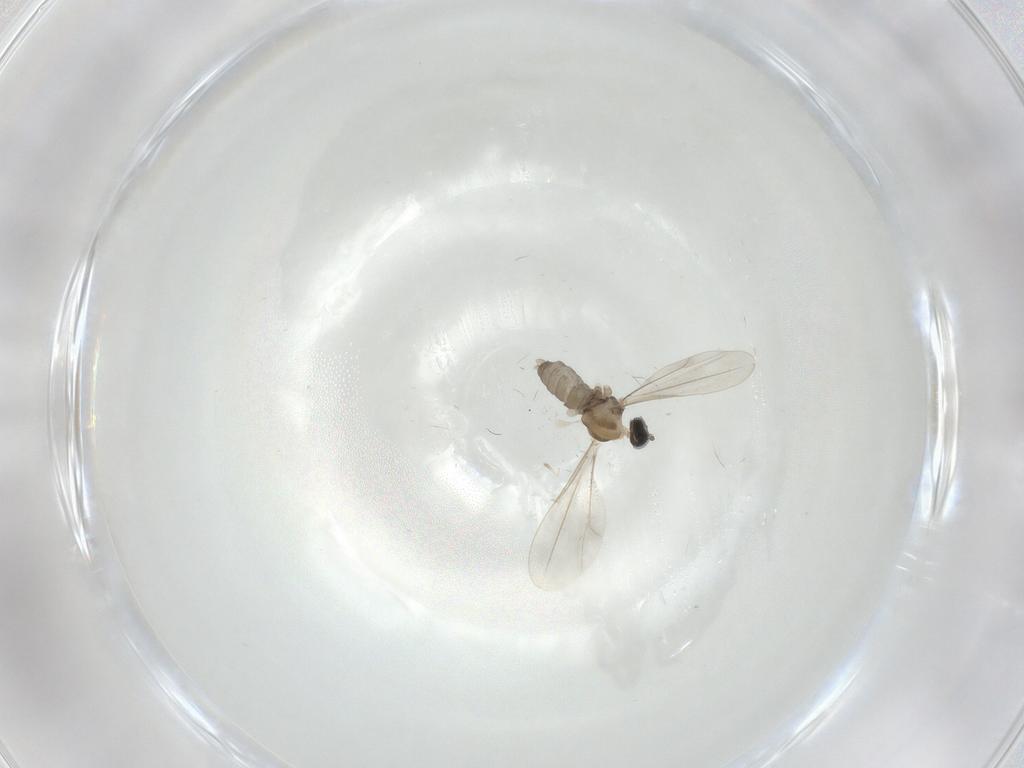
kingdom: Animalia
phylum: Arthropoda
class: Insecta
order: Diptera
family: Cecidomyiidae
